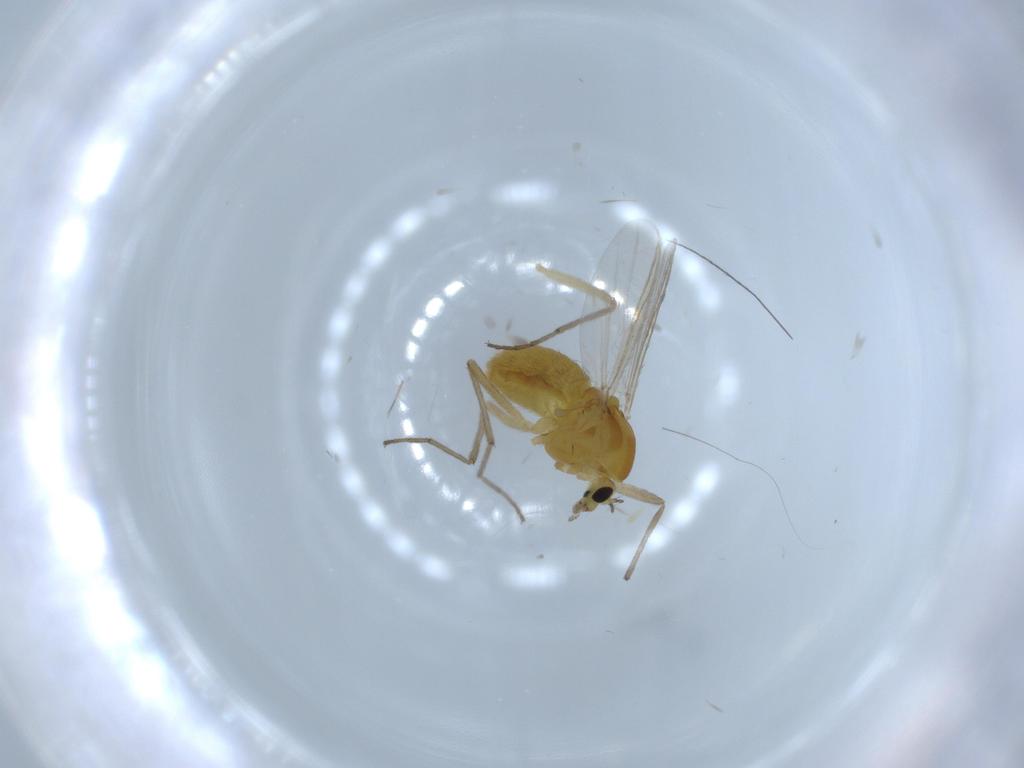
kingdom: Animalia
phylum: Arthropoda
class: Insecta
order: Diptera
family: Chironomidae
